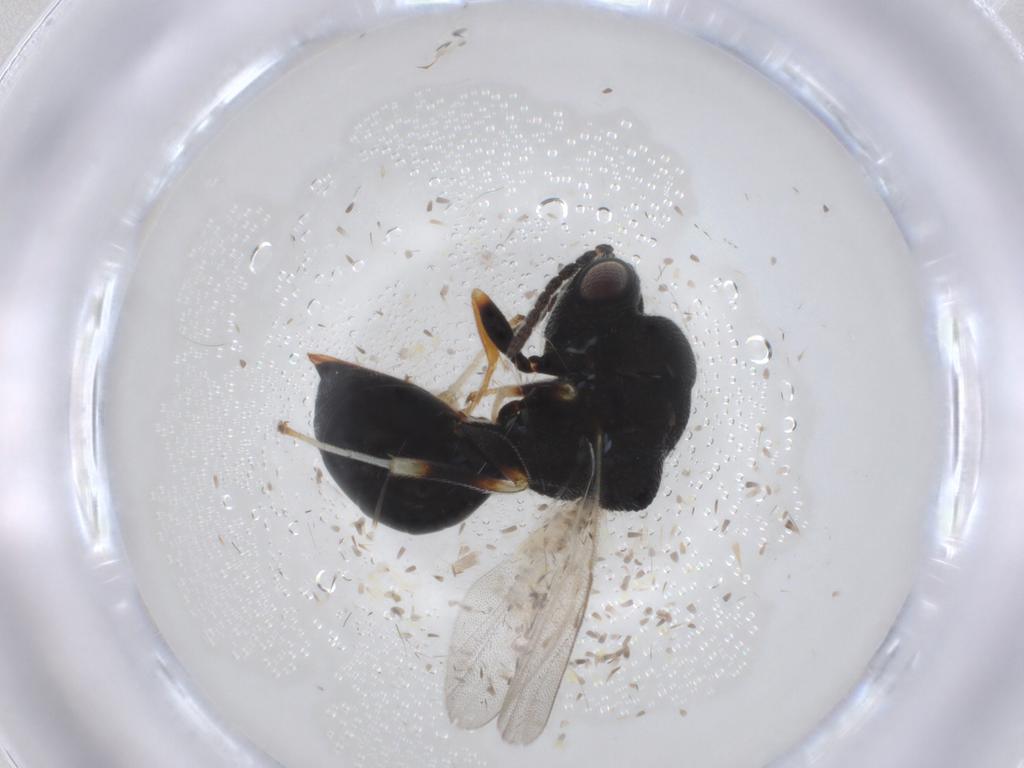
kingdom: Animalia
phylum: Arthropoda
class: Insecta
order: Hymenoptera
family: Eurytomidae
